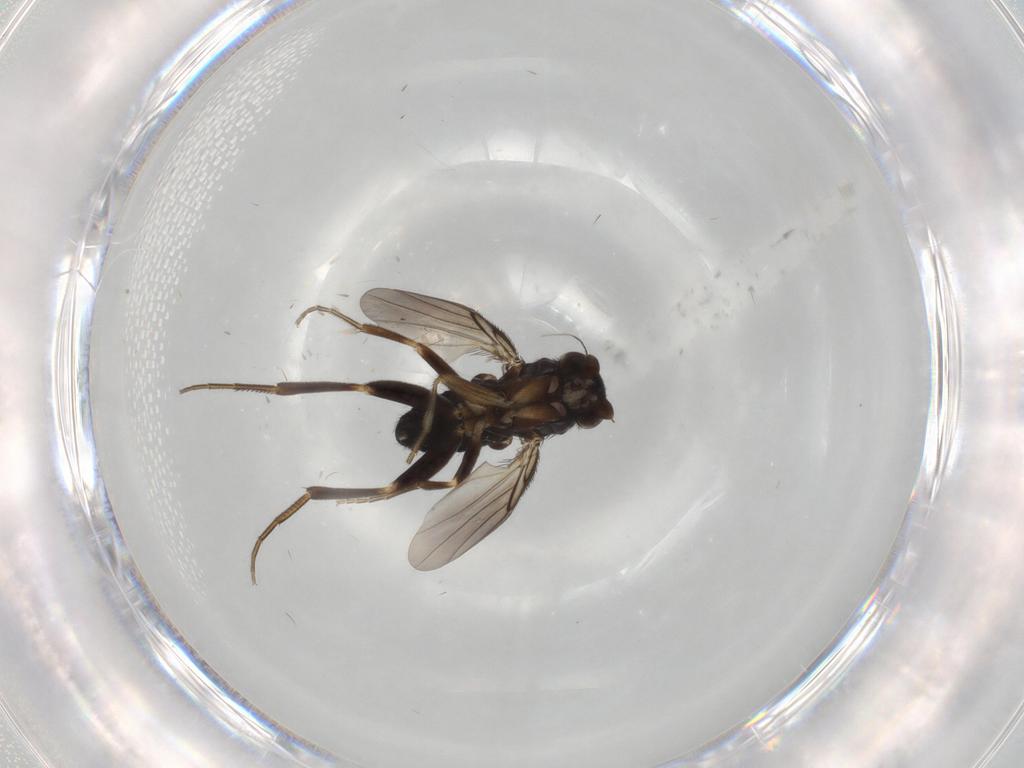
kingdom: Animalia
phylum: Arthropoda
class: Insecta
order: Diptera
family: Phoridae
